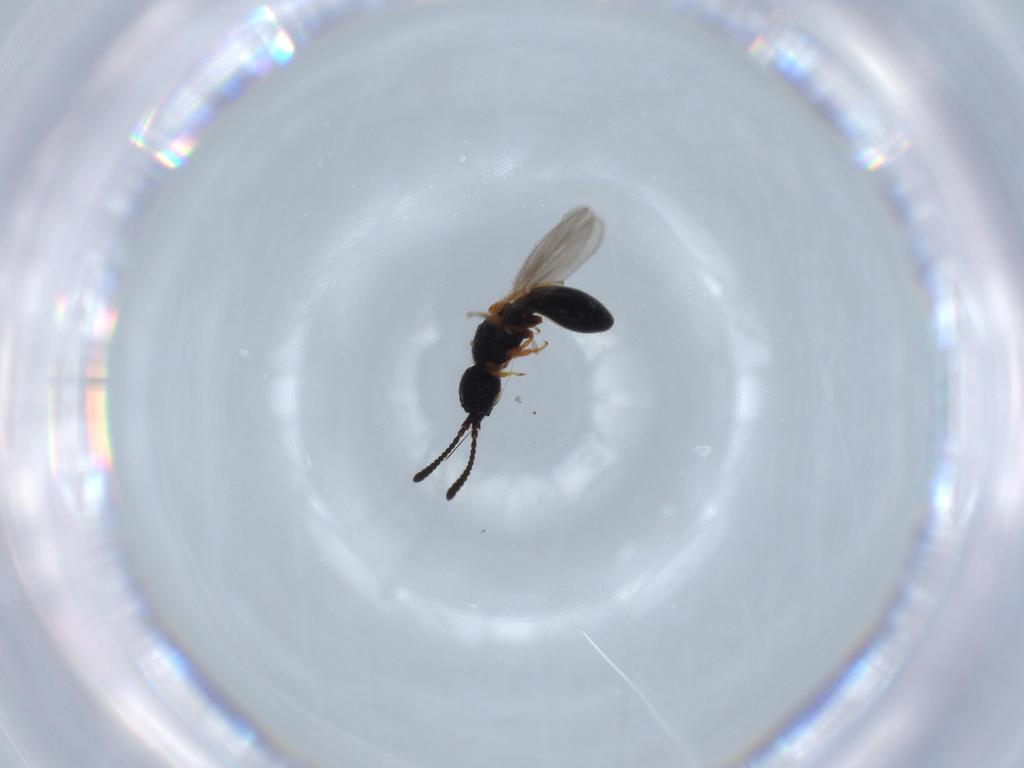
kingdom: Animalia
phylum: Arthropoda
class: Insecta
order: Hymenoptera
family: Diapriidae
